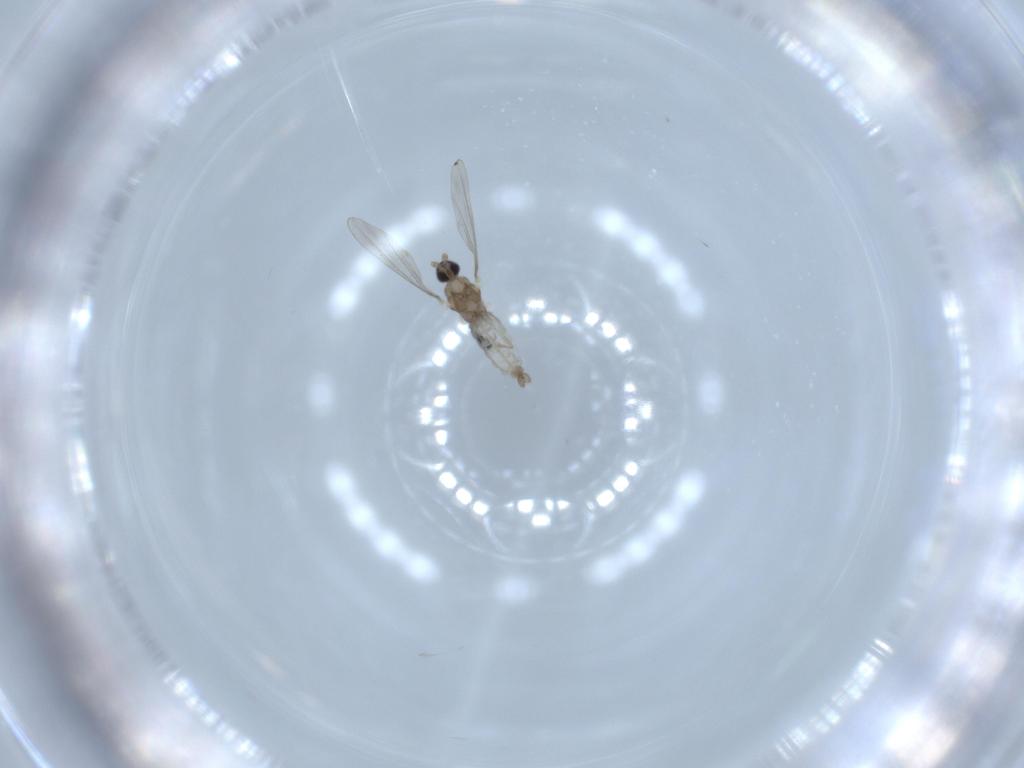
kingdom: Animalia
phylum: Arthropoda
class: Insecta
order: Diptera
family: Cecidomyiidae
